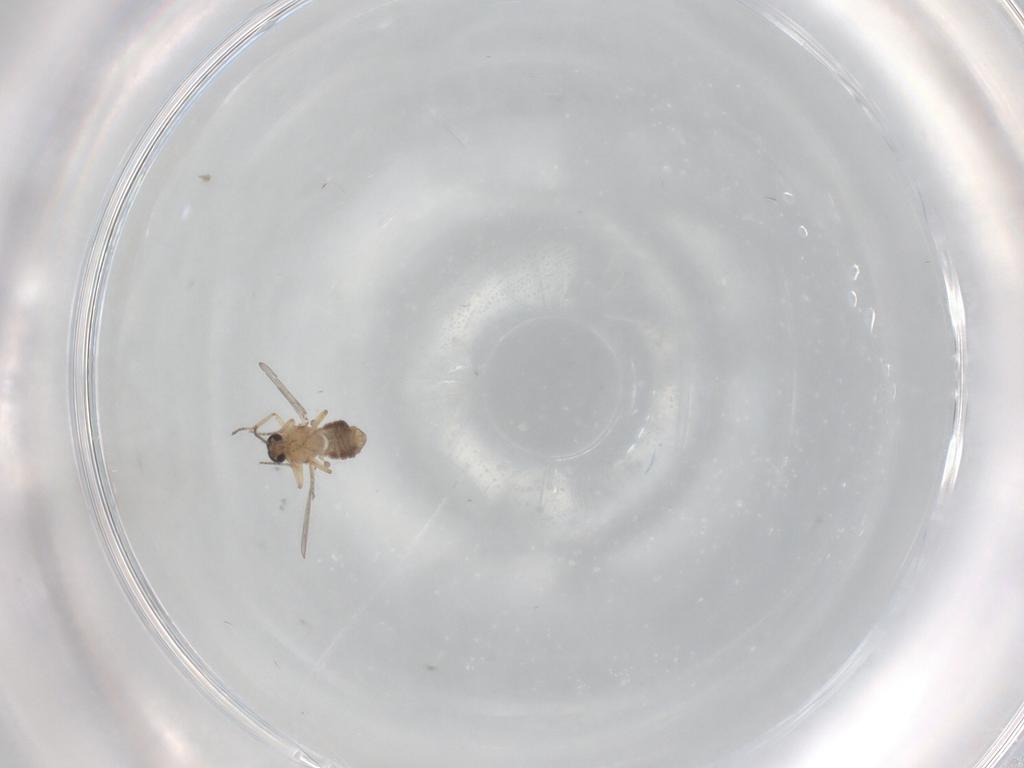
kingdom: Animalia
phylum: Arthropoda
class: Insecta
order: Diptera
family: Ceratopogonidae
